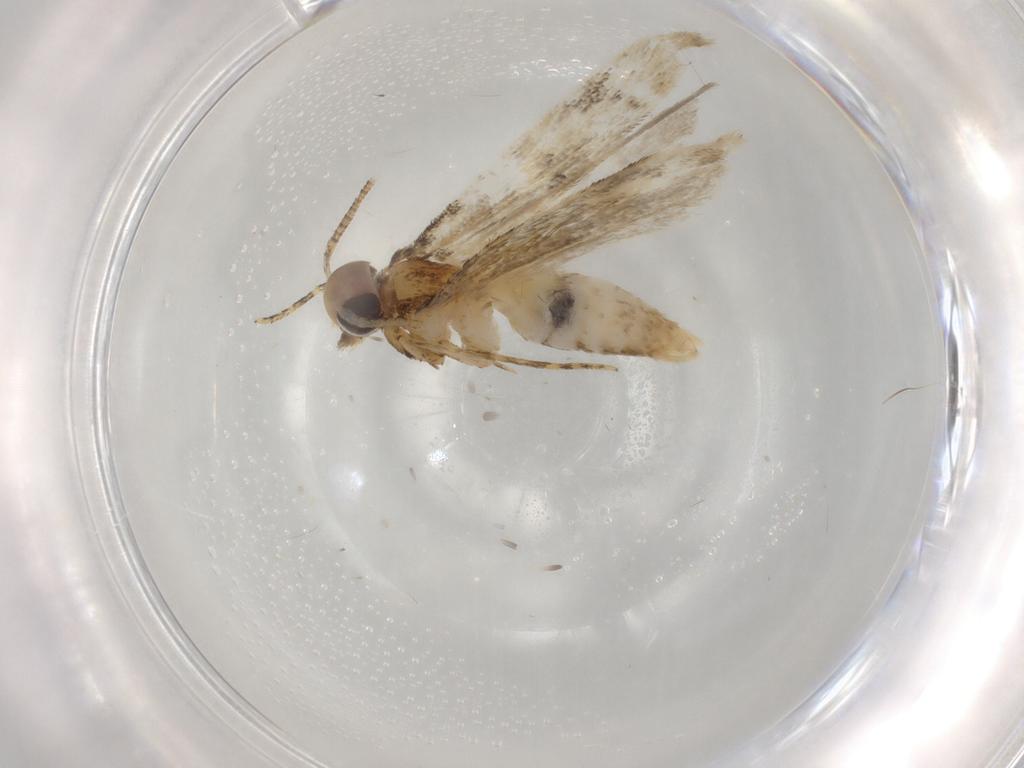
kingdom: Animalia
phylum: Arthropoda
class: Insecta
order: Lepidoptera
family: Noctuidae
